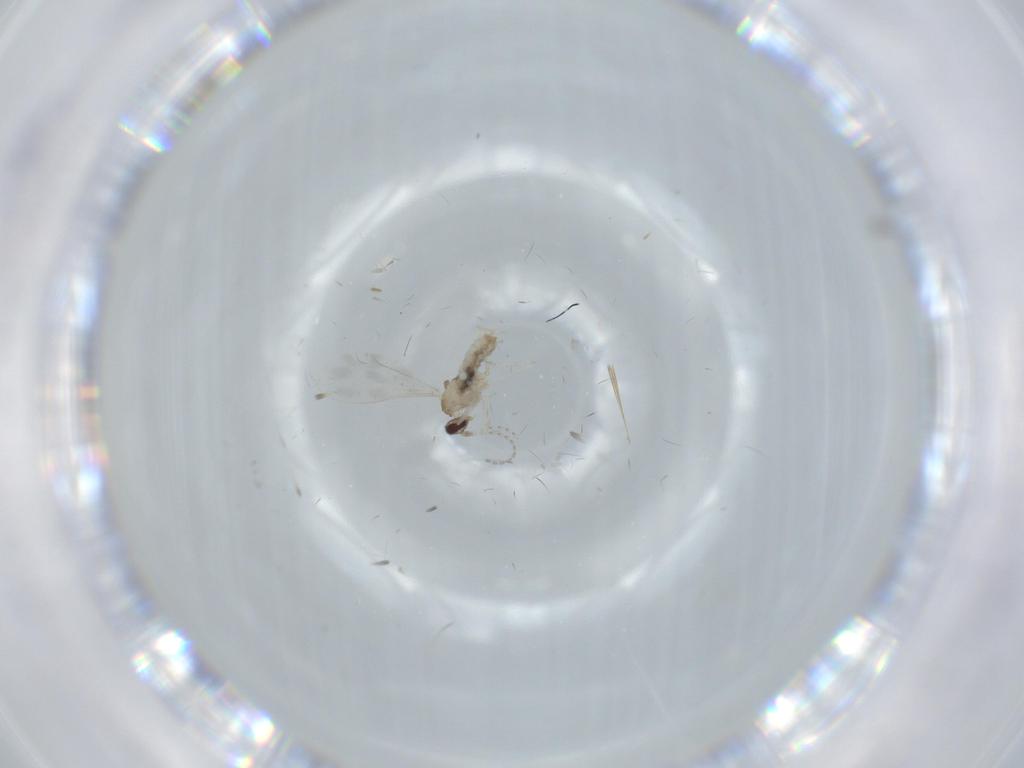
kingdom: Animalia
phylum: Arthropoda
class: Insecta
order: Diptera
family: Cecidomyiidae
